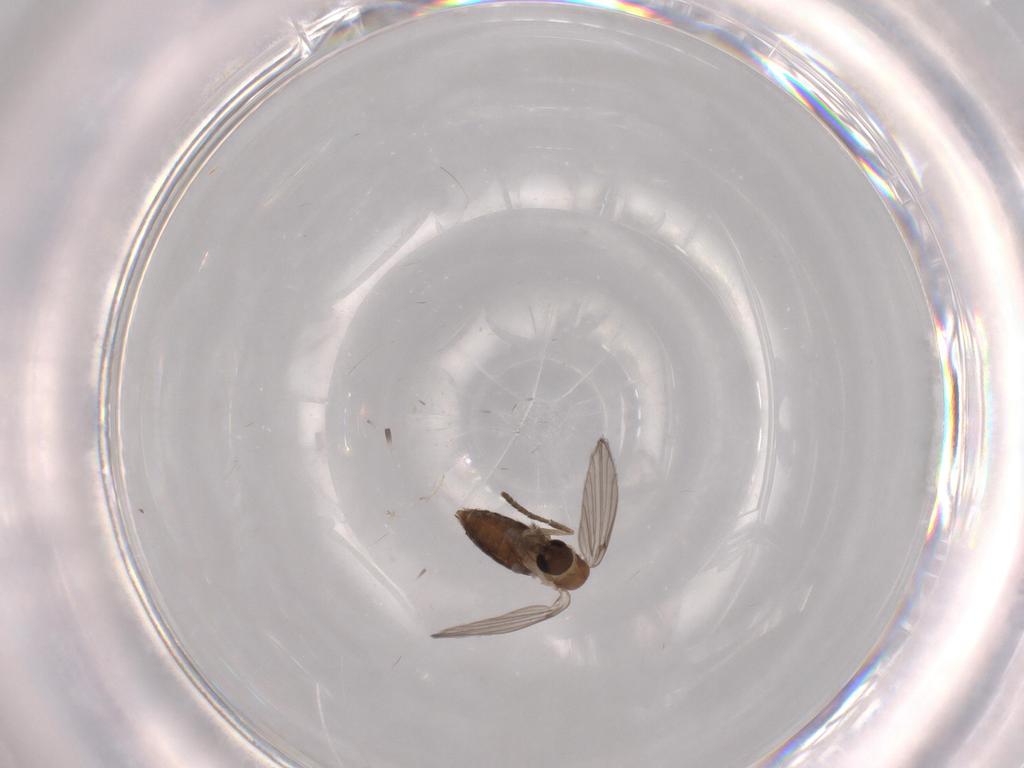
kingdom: Animalia
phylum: Arthropoda
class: Insecta
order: Diptera
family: Psychodidae
